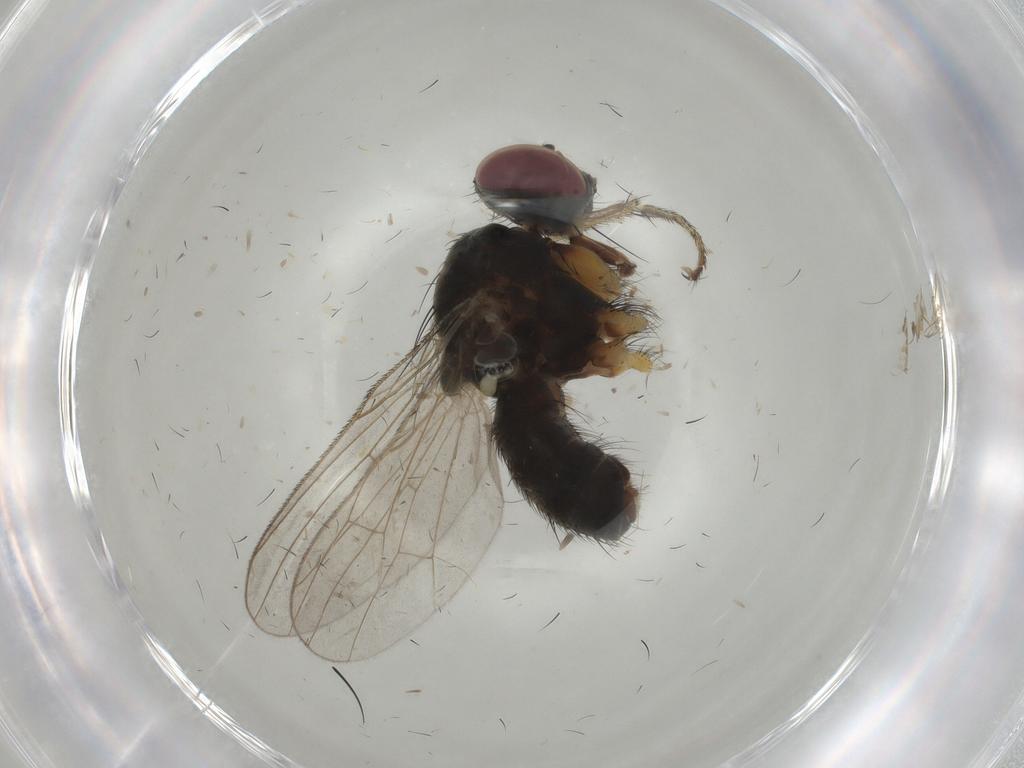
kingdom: Animalia
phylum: Arthropoda
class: Insecta
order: Diptera
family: Muscidae
